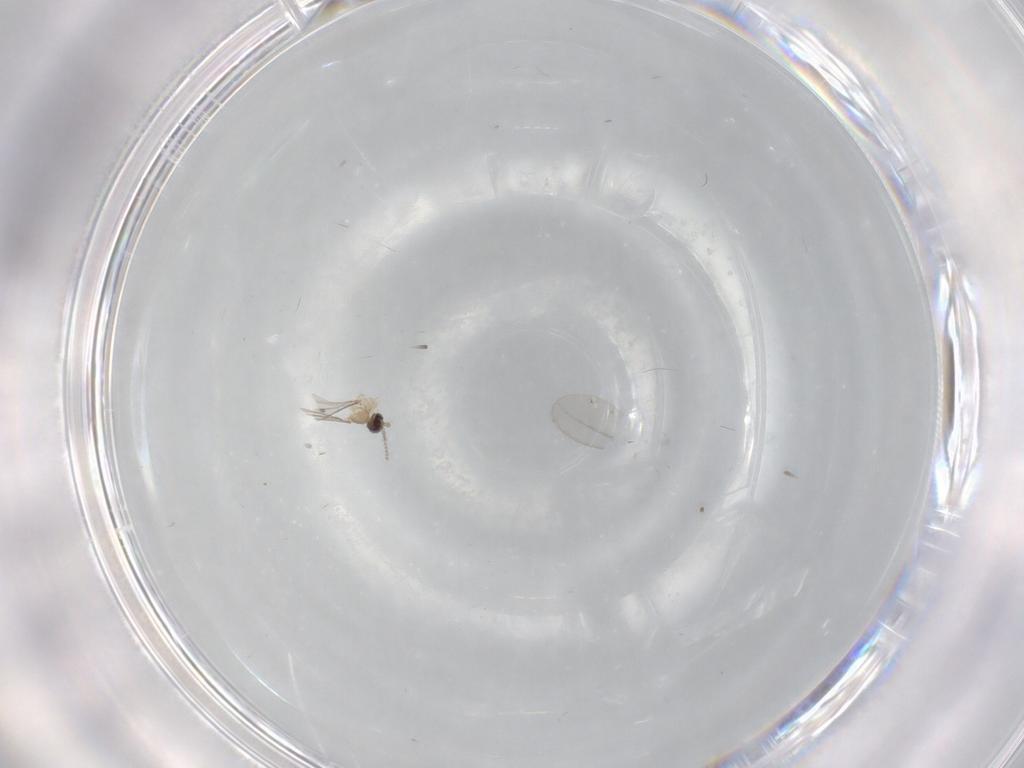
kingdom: Animalia
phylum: Arthropoda
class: Insecta
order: Diptera
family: Cecidomyiidae
